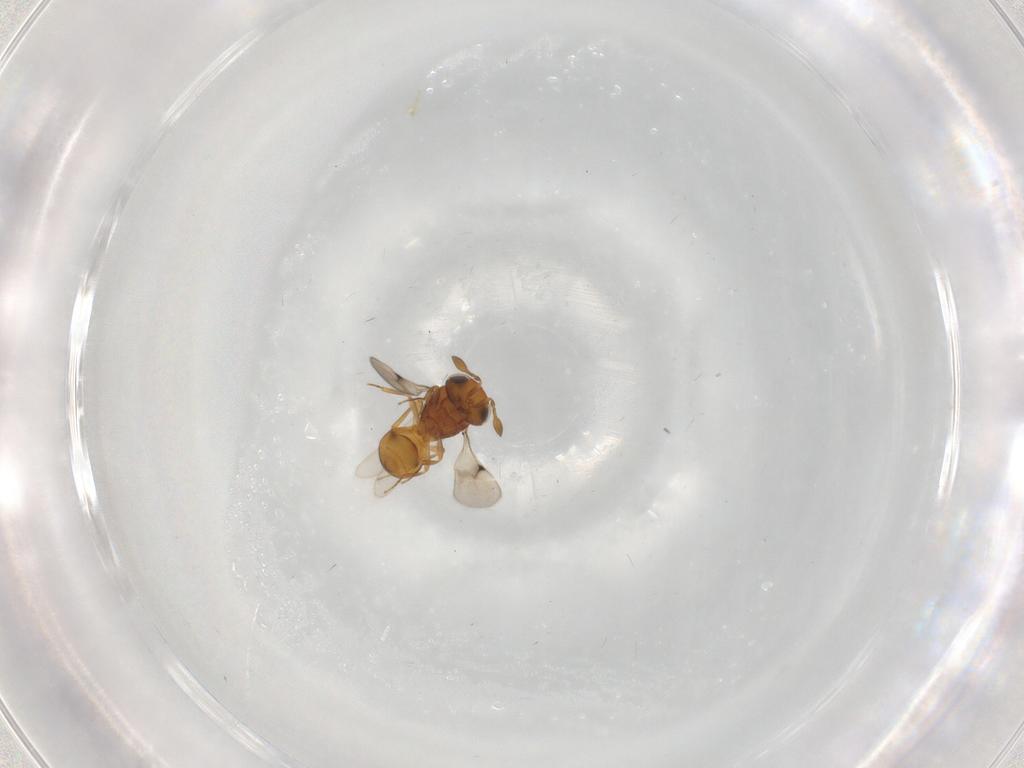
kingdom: Animalia
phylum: Arthropoda
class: Insecta
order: Hymenoptera
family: Scelionidae
